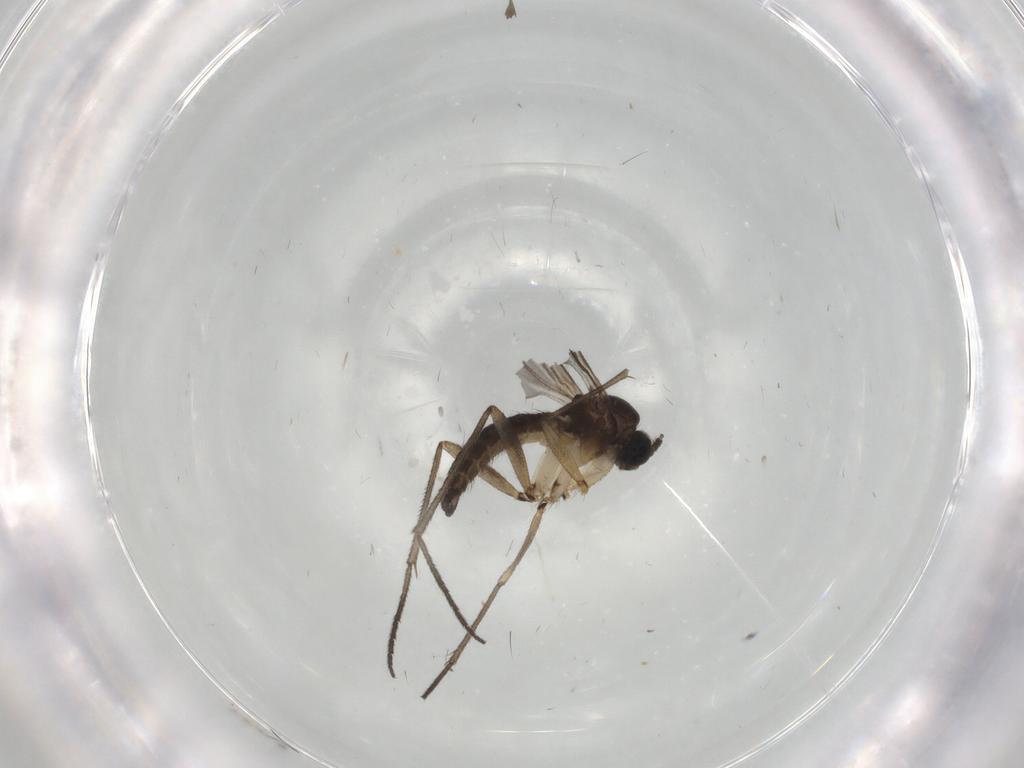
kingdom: Animalia
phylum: Arthropoda
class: Insecta
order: Diptera
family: Sciaridae
